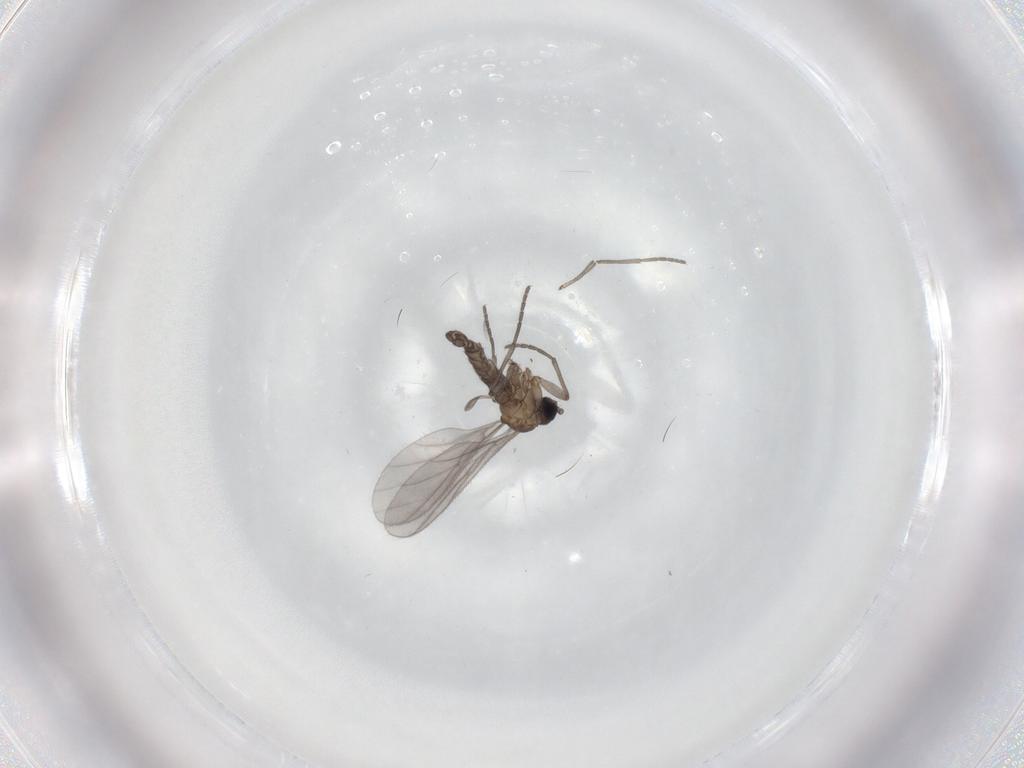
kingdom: Animalia
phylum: Arthropoda
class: Insecta
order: Diptera
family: Sciaridae
